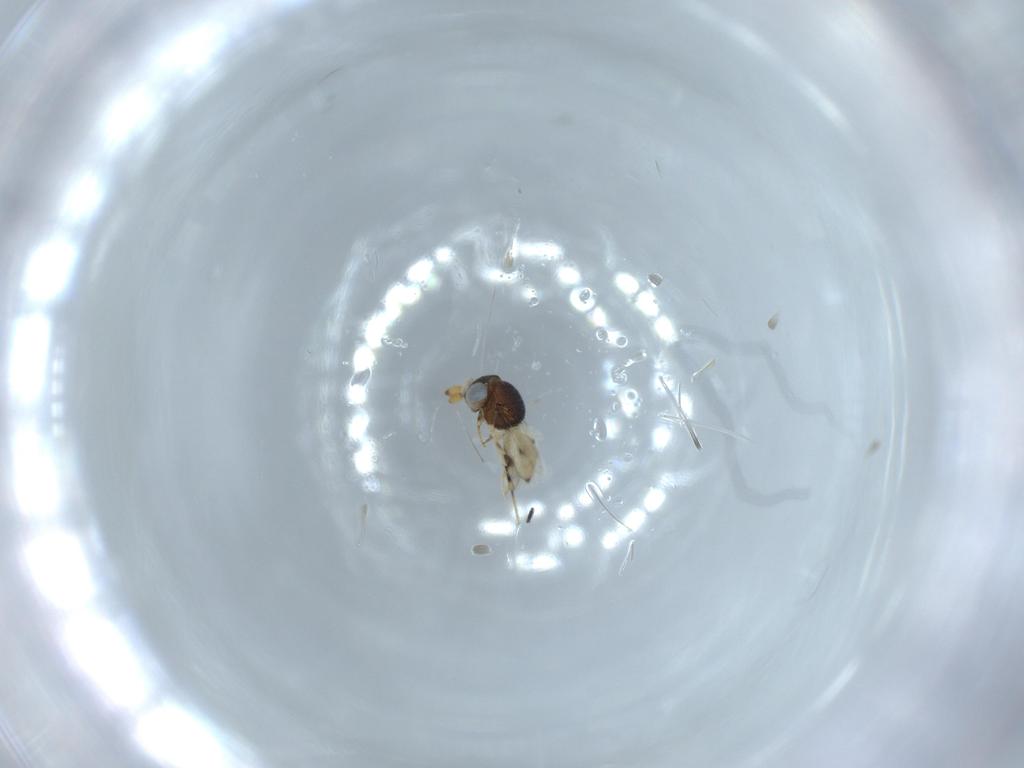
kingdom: Animalia
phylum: Arthropoda
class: Insecta
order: Hymenoptera
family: Scelionidae
